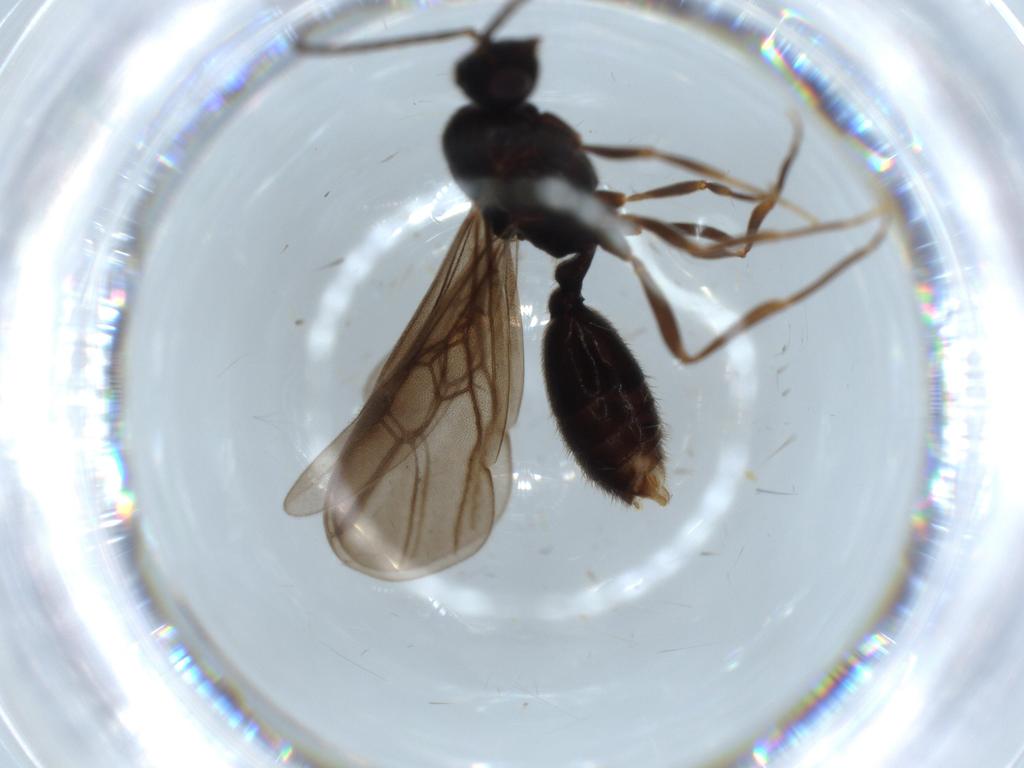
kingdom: Animalia
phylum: Arthropoda
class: Insecta
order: Hymenoptera
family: Formicidae
